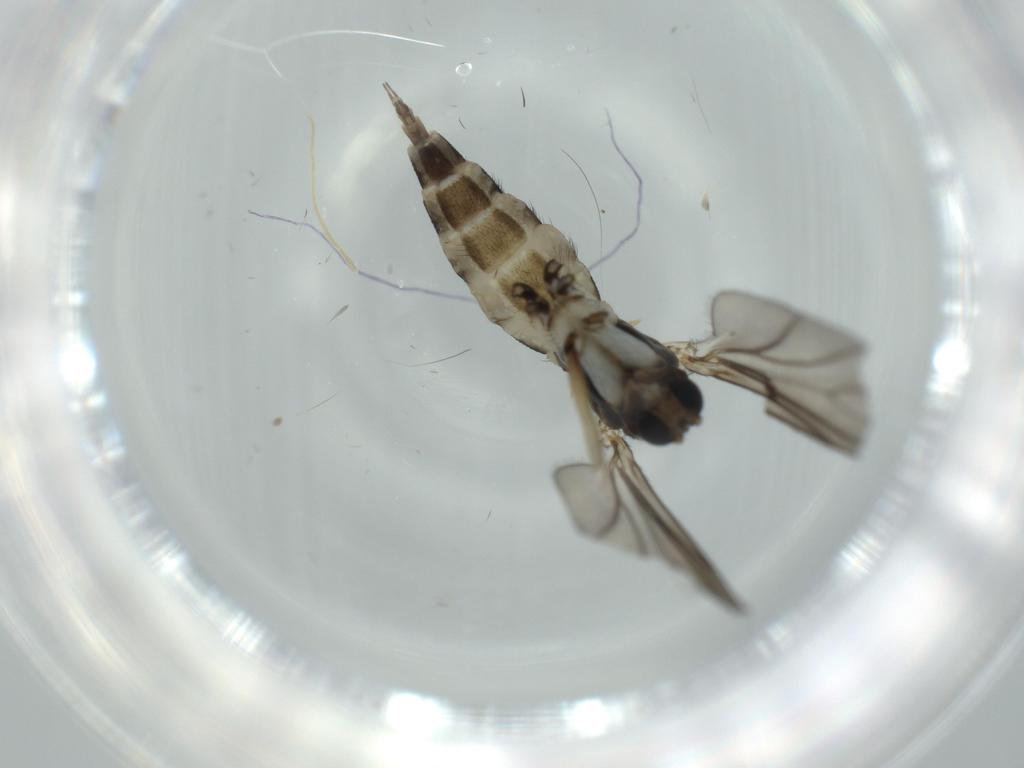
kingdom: Animalia
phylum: Arthropoda
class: Insecta
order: Diptera
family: Sciaridae
